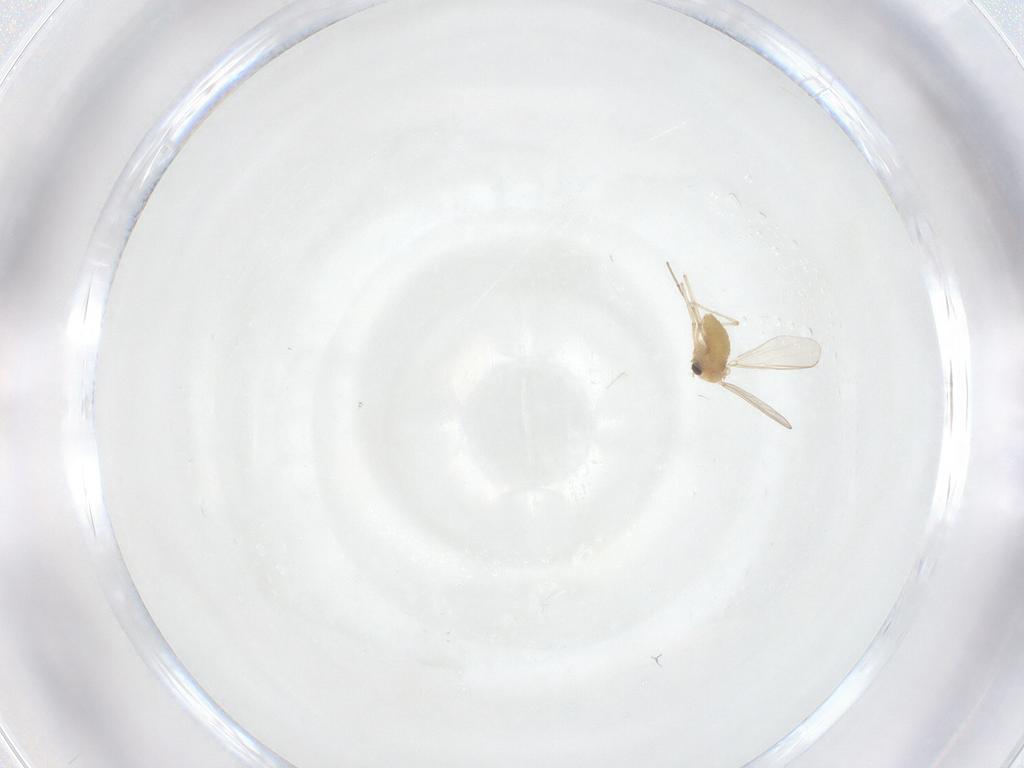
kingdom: Animalia
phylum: Arthropoda
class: Insecta
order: Diptera
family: Chironomidae
